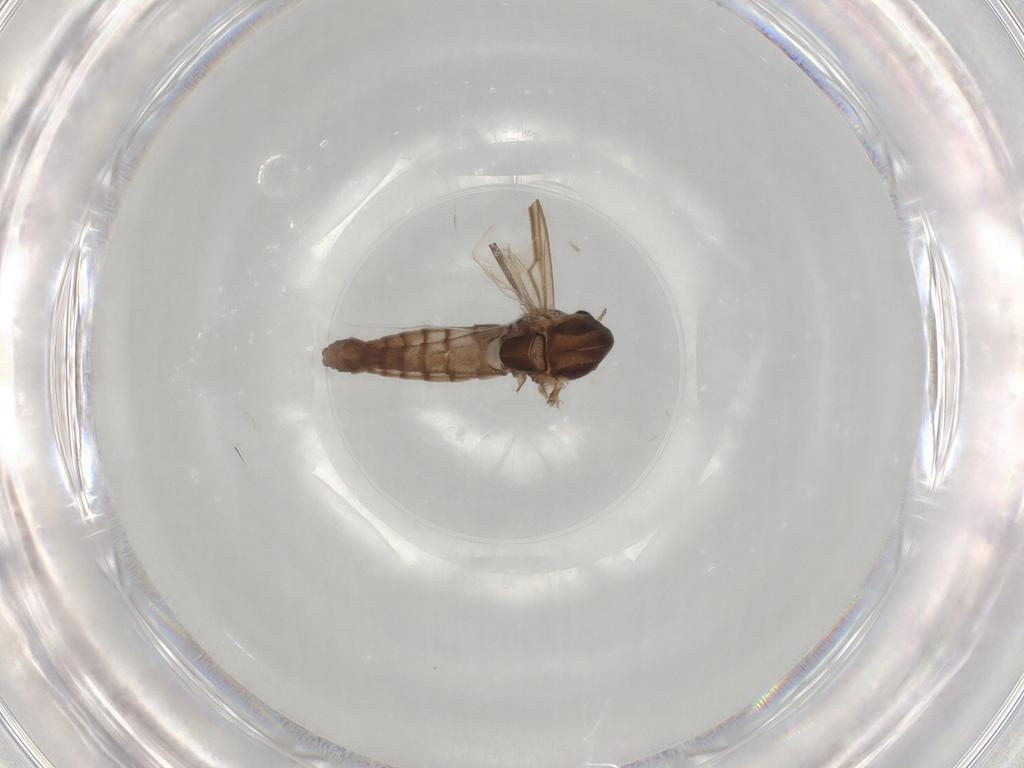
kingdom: Animalia
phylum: Arthropoda
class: Insecta
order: Diptera
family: Chironomidae
